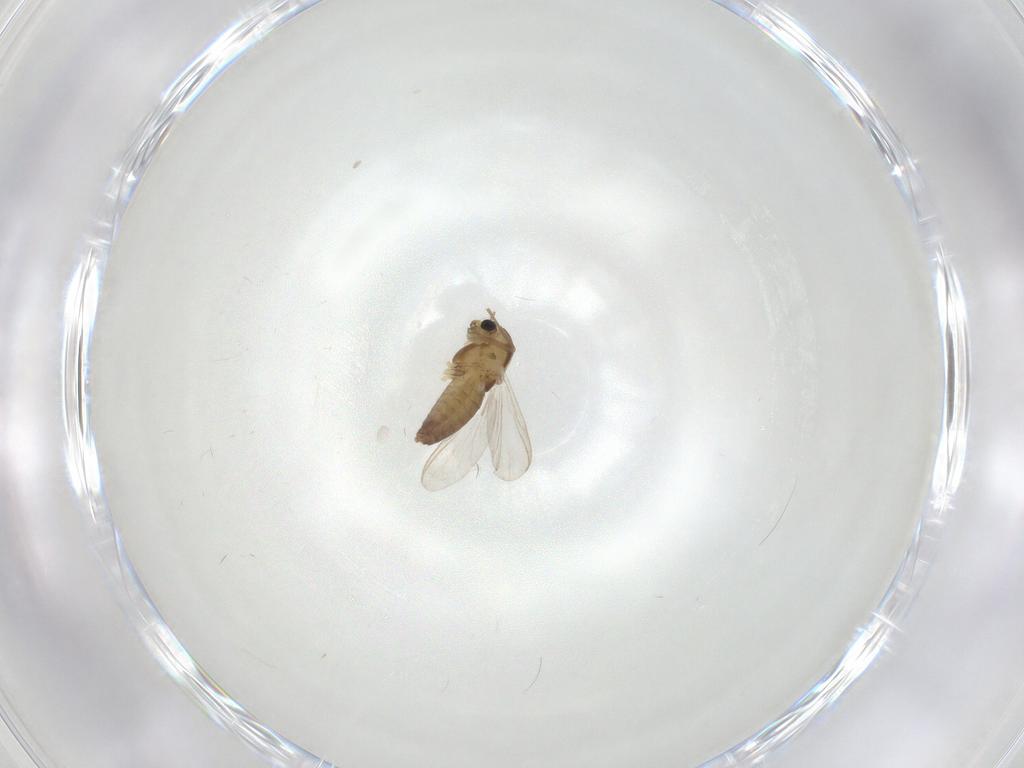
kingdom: Animalia
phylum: Arthropoda
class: Insecta
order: Diptera
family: Chironomidae
